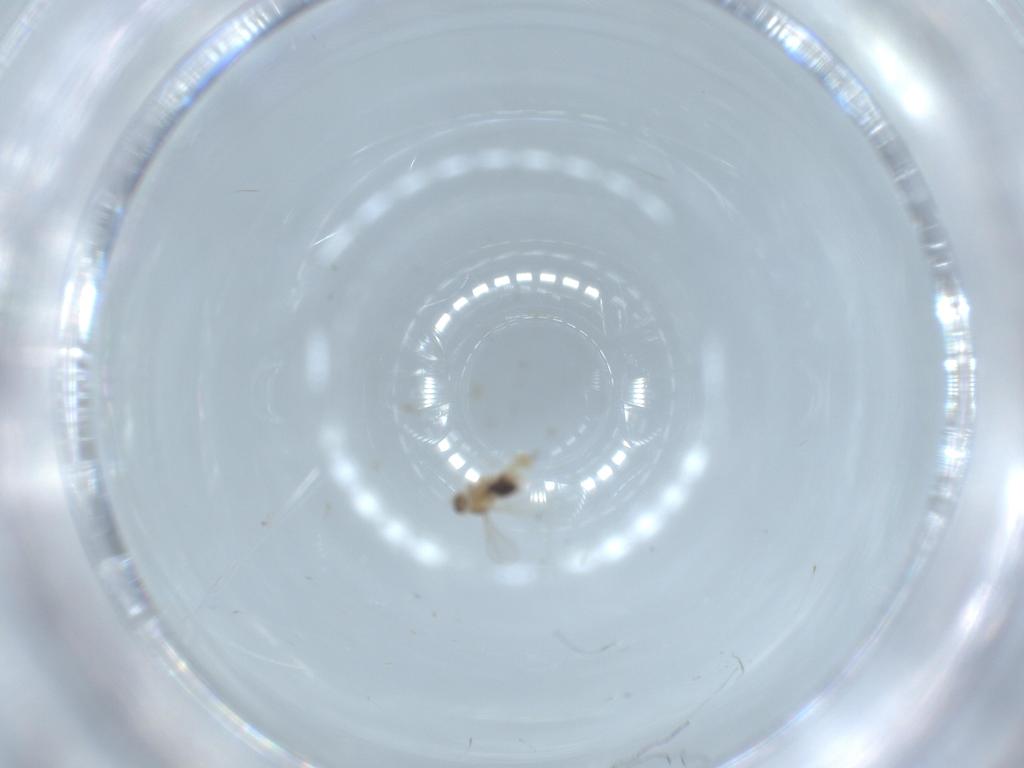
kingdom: Animalia
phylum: Arthropoda
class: Insecta
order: Diptera
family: Cecidomyiidae
